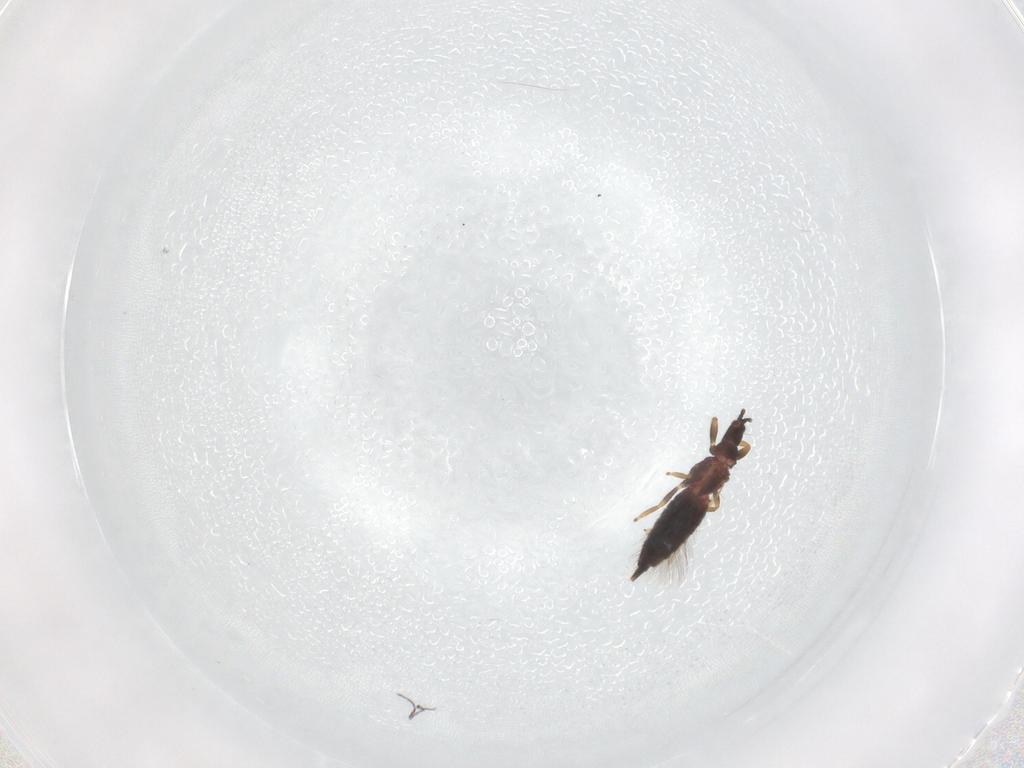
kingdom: Animalia
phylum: Arthropoda
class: Insecta
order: Thysanoptera
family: Phlaeothripidae
